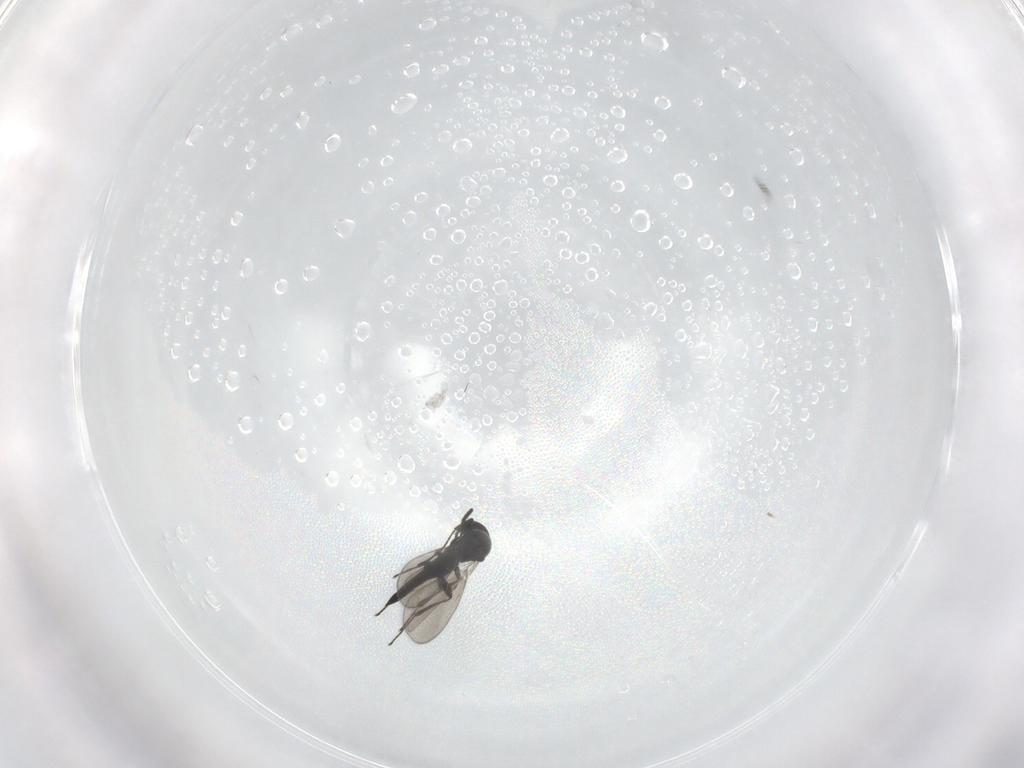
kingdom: Animalia
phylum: Arthropoda
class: Insecta
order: Hymenoptera
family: Platygastridae
